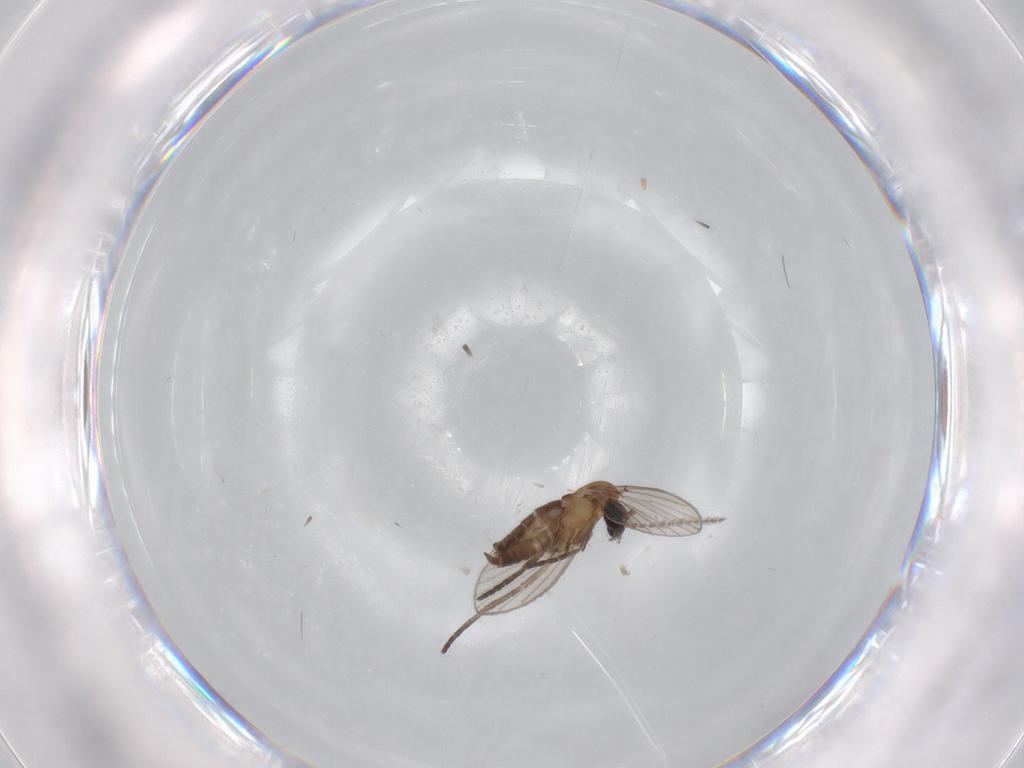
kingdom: Animalia
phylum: Arthropoda
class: Insecta
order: Diptera
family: Psychodidae
